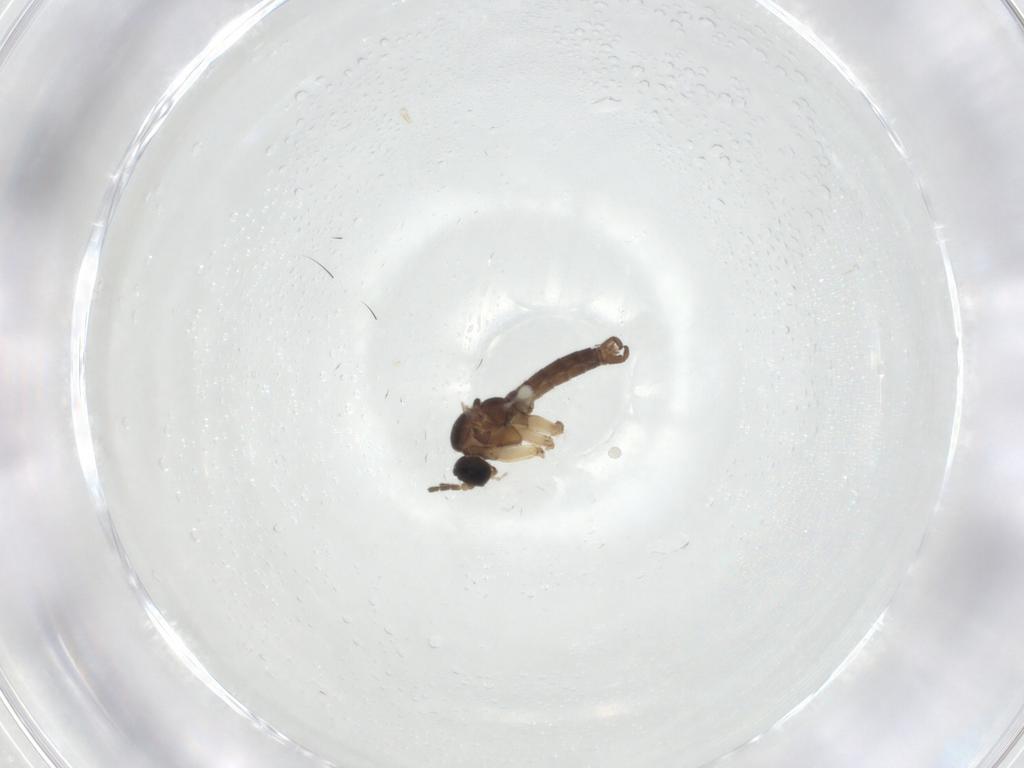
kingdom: Animalia
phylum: Arthropoda
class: Insecta
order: Diptera
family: Sciaridae
